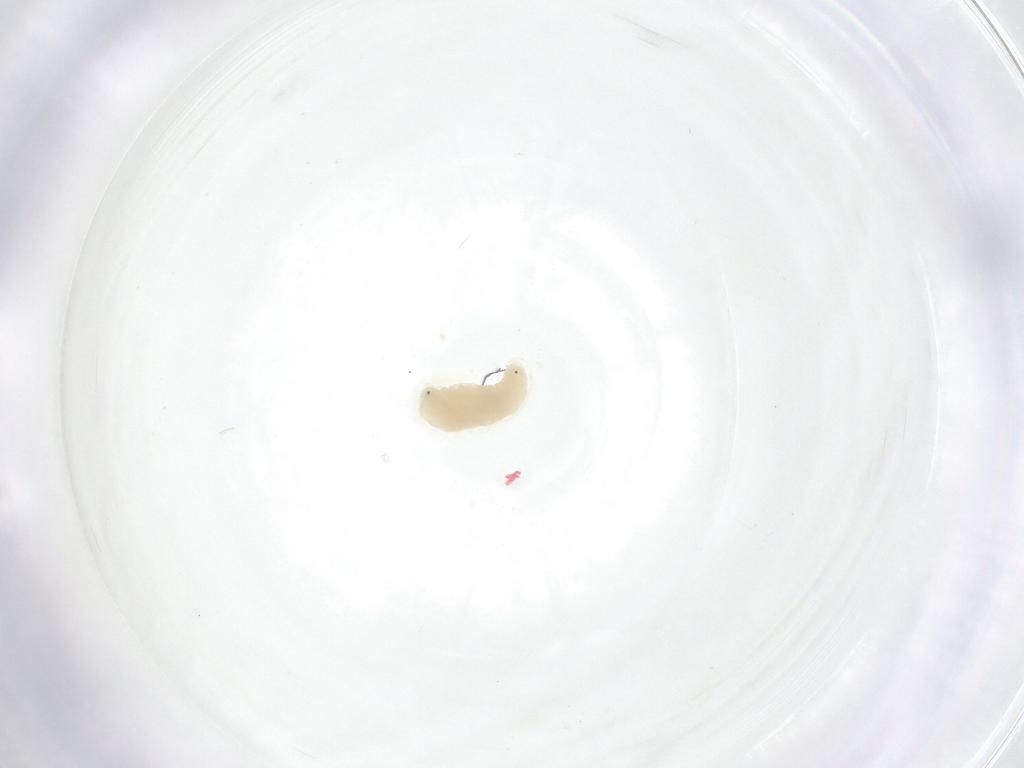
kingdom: Animalia
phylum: Arthropoda
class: Insecta
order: Diptera
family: Fergusoninidae
